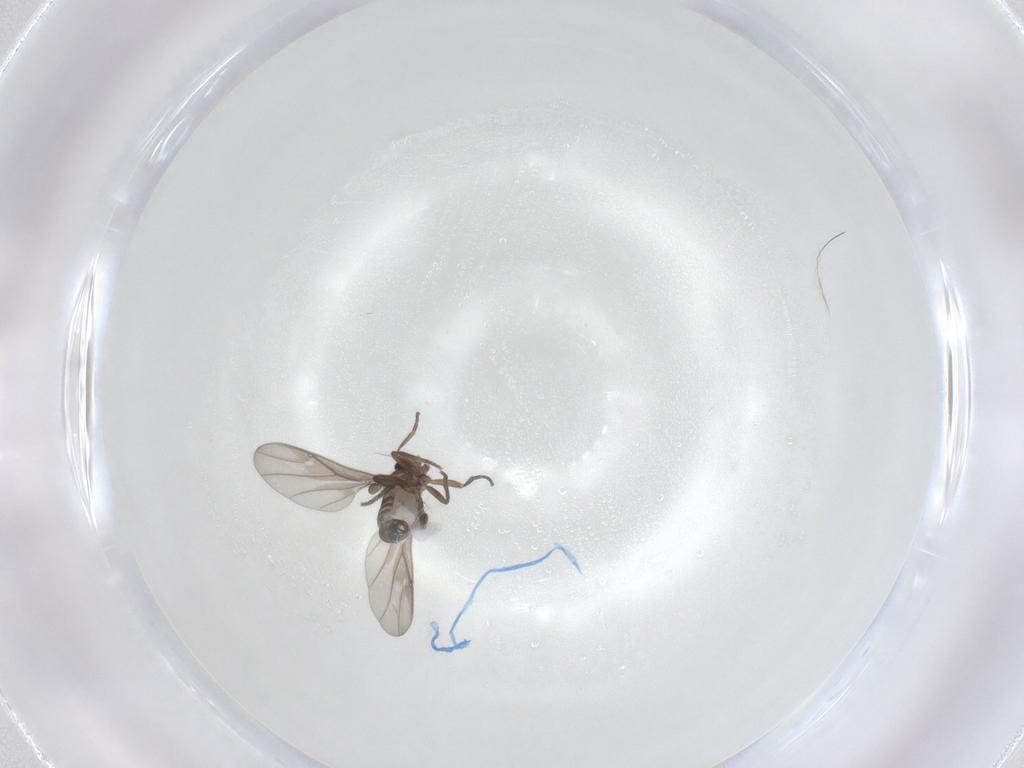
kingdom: Animalia
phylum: Arthropoda
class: Insecta
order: Diptera
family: Cecidomyiidae
